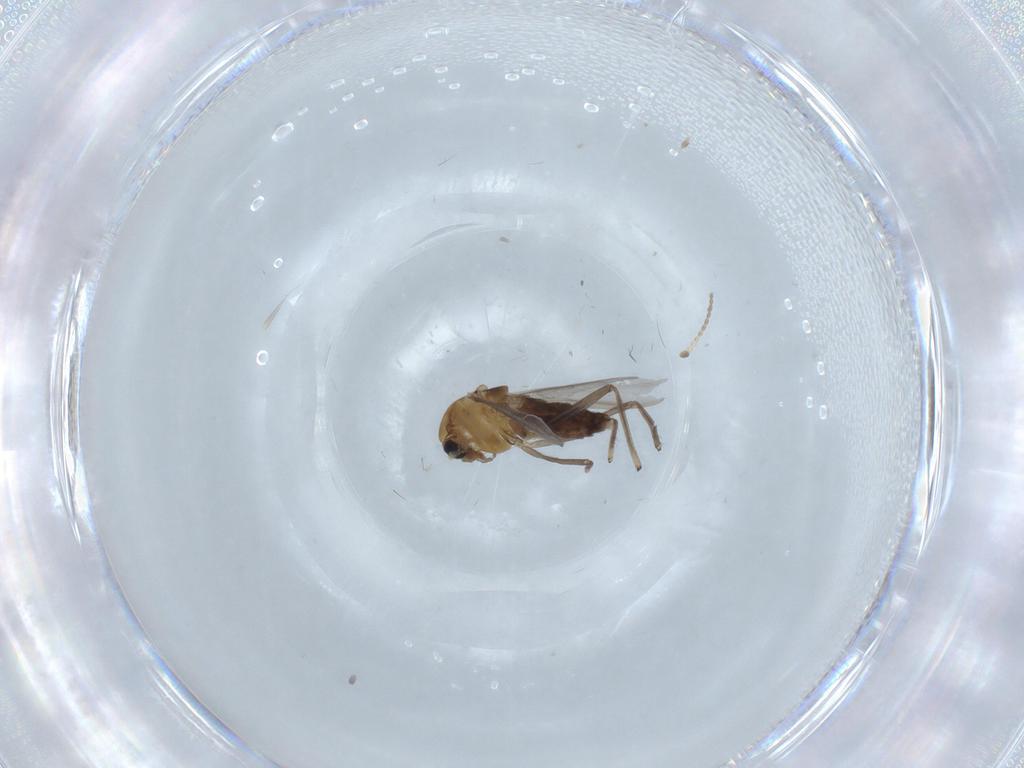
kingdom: Animalia
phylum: Arthropoda
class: Insecta
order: Diptera
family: Chironomidae
